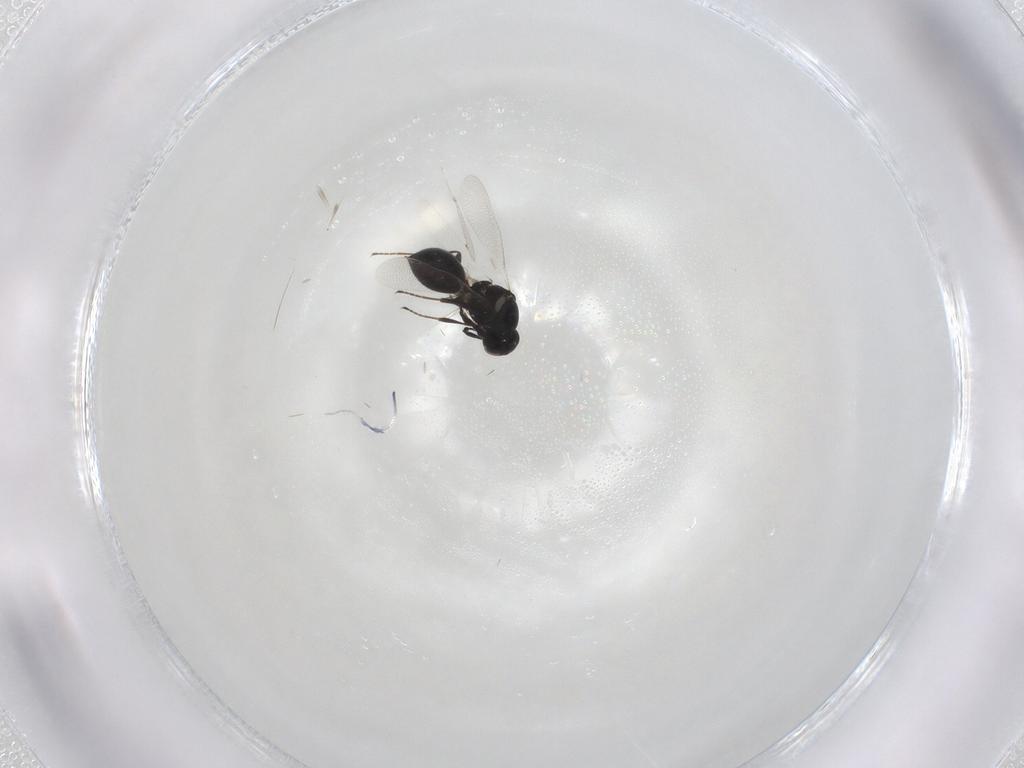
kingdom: Animalia
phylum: Arthropoda
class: Insecta
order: Hymenoptera
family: Platygastridae
